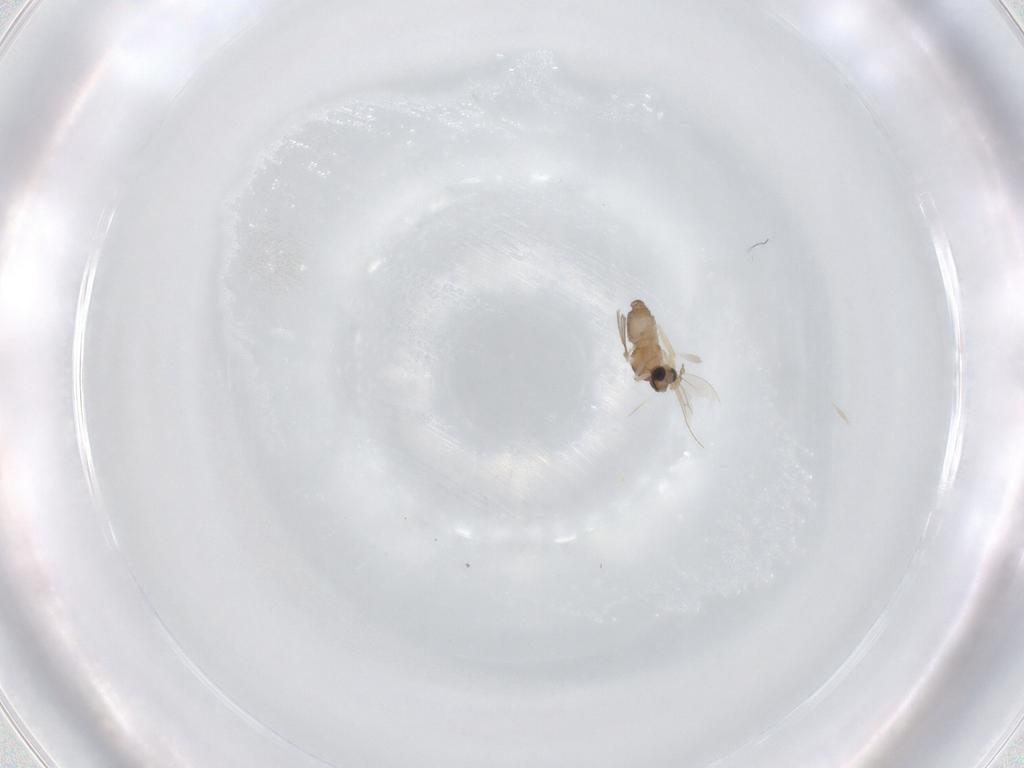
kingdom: Animalia
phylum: Arthropoda
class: Insecta
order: Diptera
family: Cecidomyiidae
